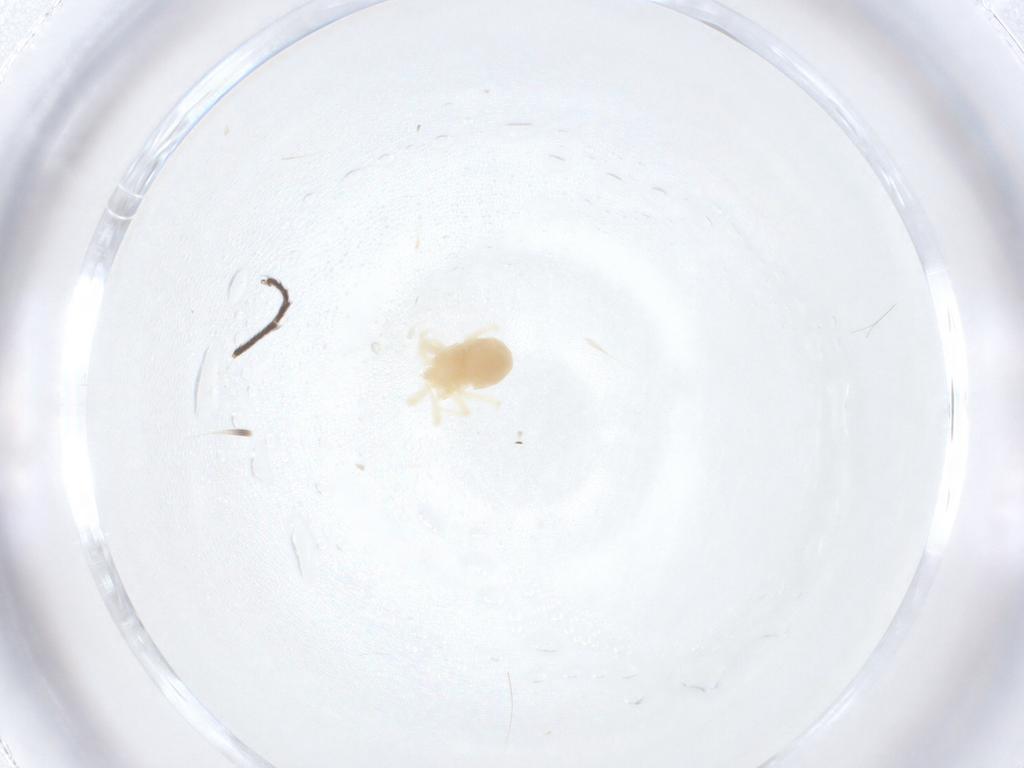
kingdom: Animalia
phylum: Arthropoda
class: Arachnida
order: Trombidiformes
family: Anystidae
